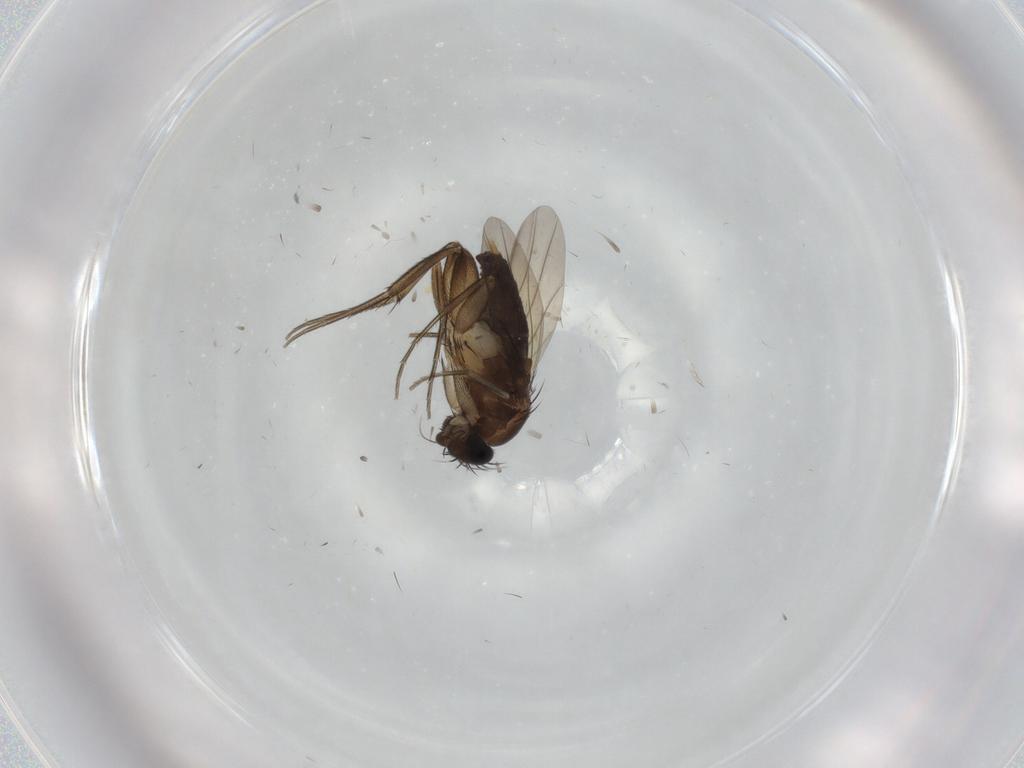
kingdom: Animalia
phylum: Arthropoda
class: Insecta
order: Diptera
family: Phoridae
